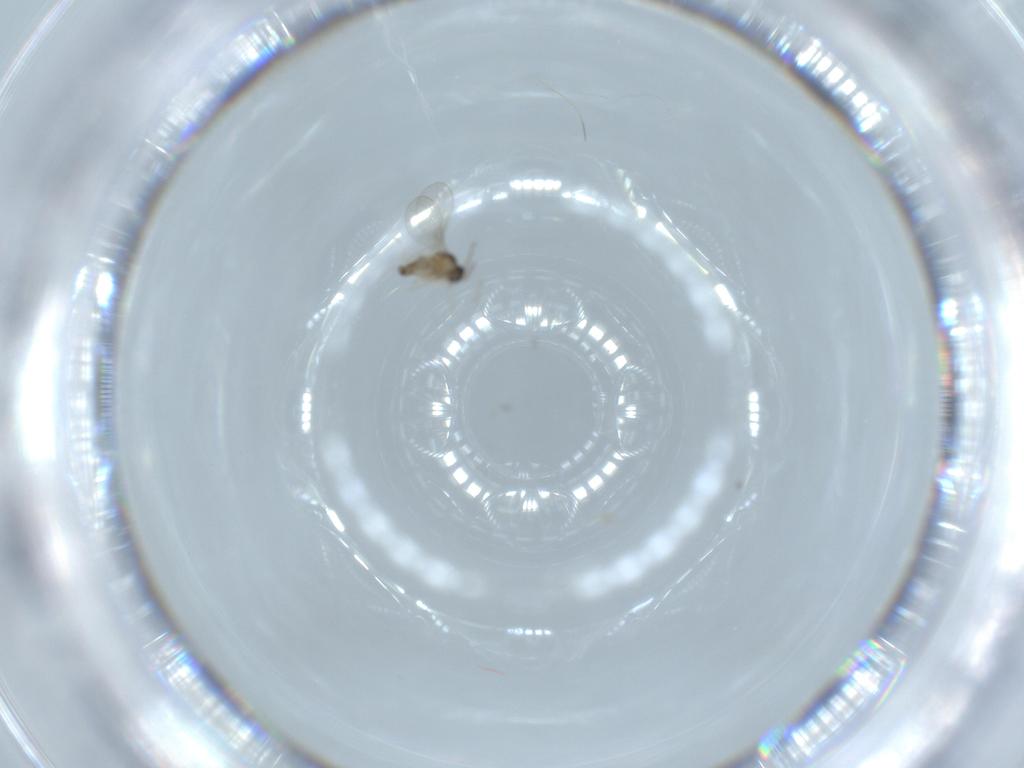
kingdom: Animalia
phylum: Arthropoda
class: Insecta
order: Diptera
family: Cecidomyiidae
